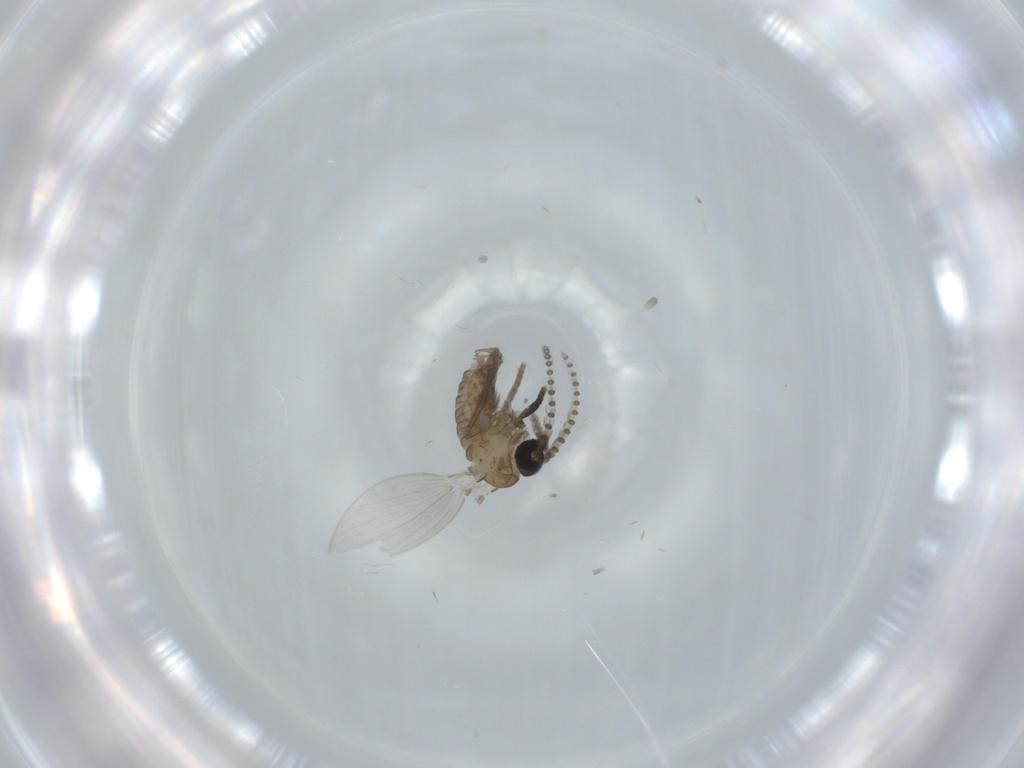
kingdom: Animalia
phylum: Arthropoda
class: Insecta
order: Diptera
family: Psychodidae
